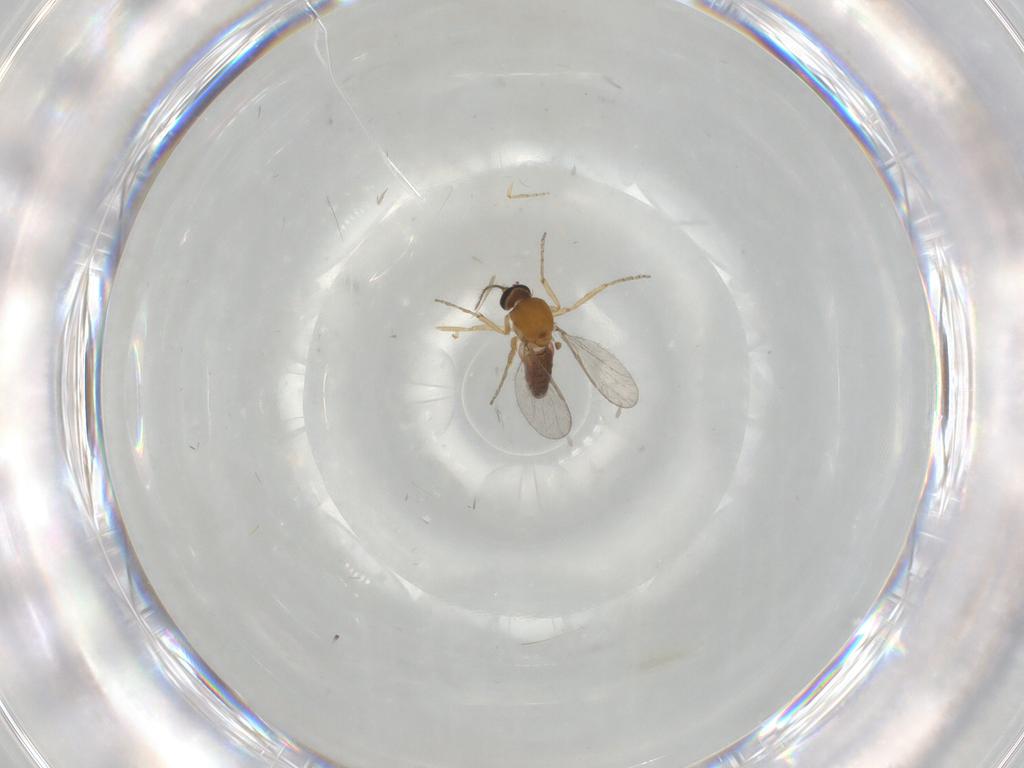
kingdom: Animalia
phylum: Arthropoda
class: Insecta
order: Diptera
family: Ceratopogonidae
